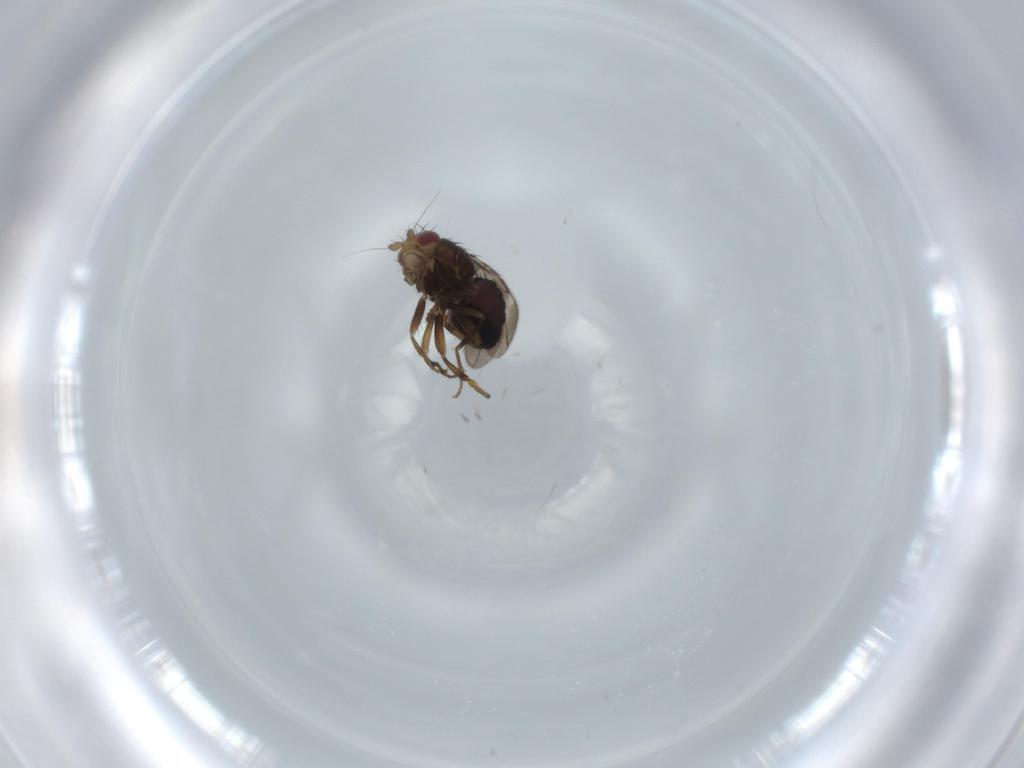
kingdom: Animalia
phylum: Arthropoda
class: Insecta
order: Diptera
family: Sphaeroceridae
